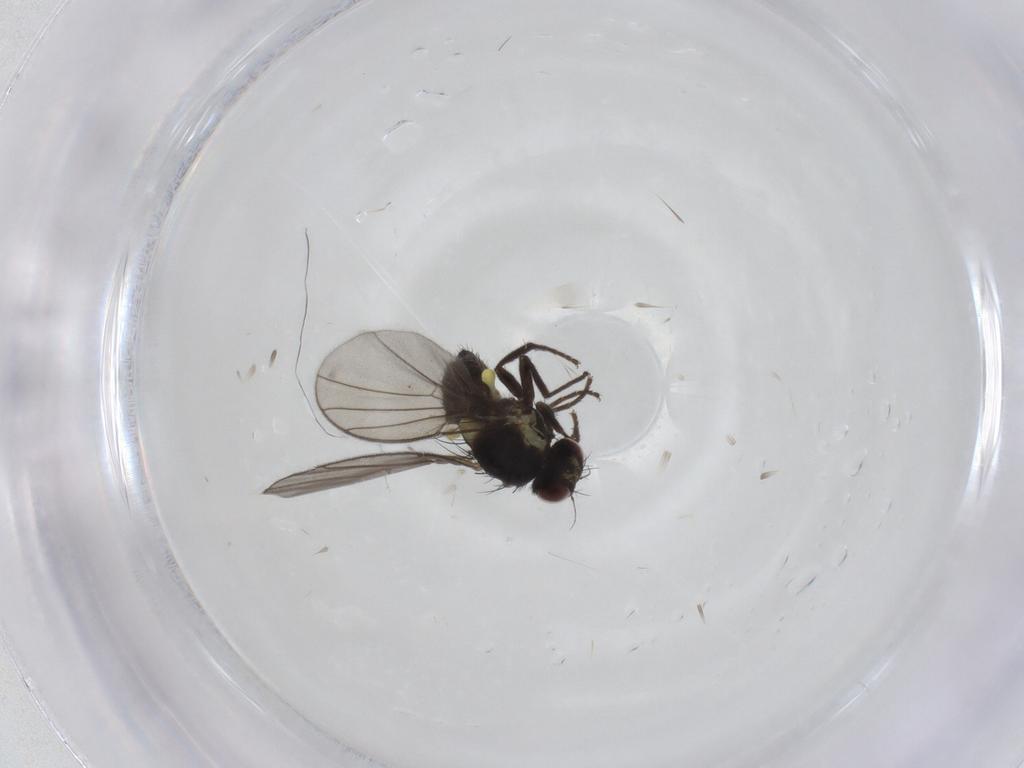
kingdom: Animalia
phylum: Arthropoda
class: Insecta
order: Diptera
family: Agromyzidae
